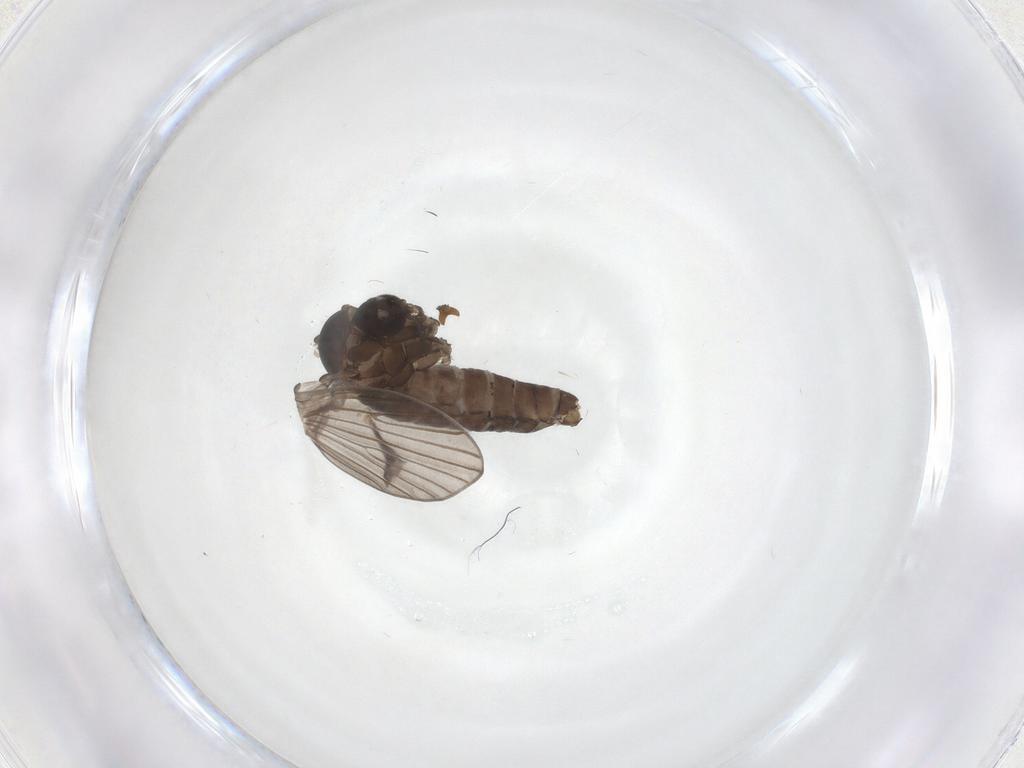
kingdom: Animalia
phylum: Arthropoda
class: Insecta
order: Diptera
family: Psychodidae
